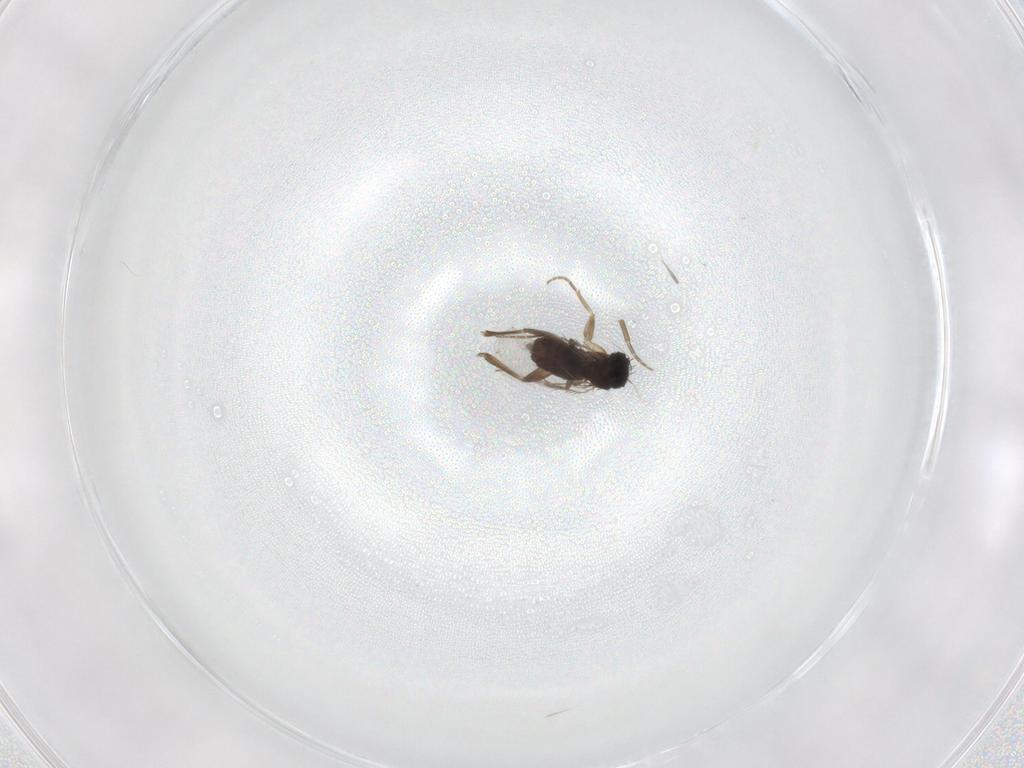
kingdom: Animalia
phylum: Arthropoda
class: Insecta
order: Diptera
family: Phoridae
